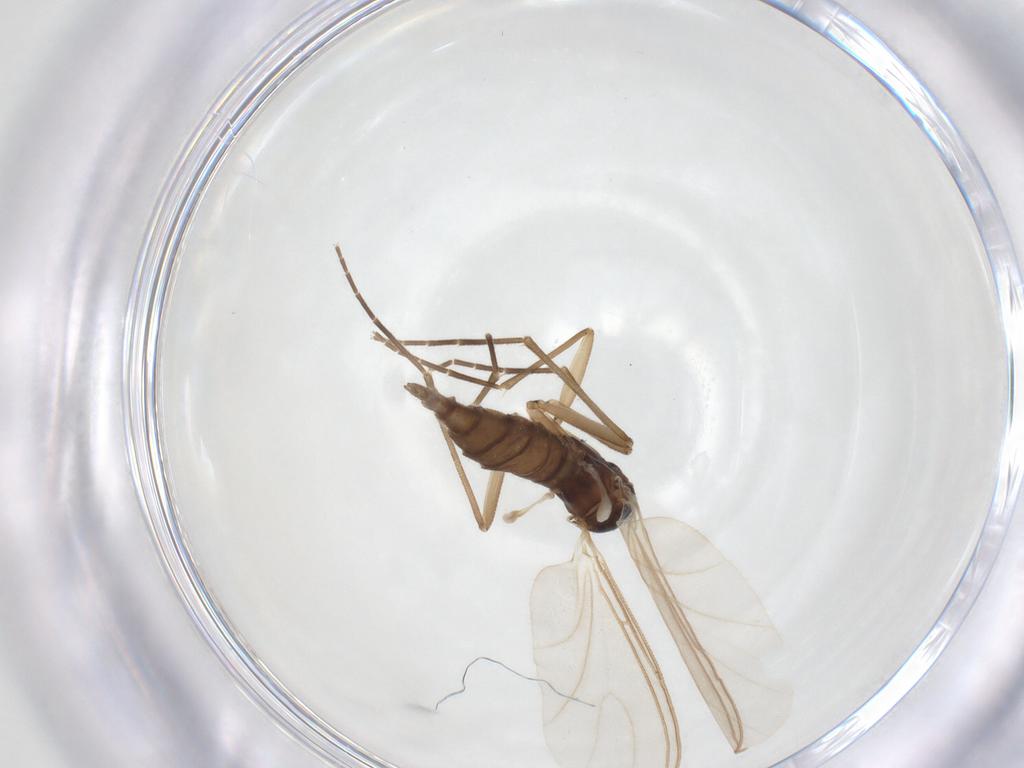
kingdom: Animalia
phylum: Arthropoda
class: Insecta
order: Diptera
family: Sciaridae
